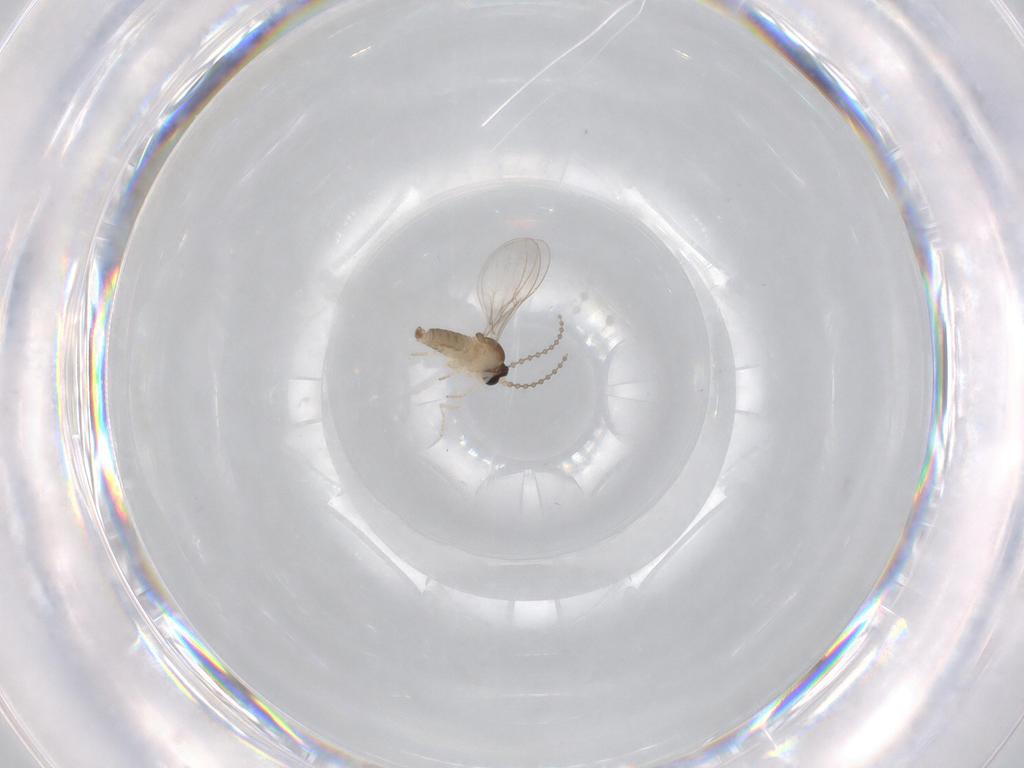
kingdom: Animalia
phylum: Arthropoda
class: Insecta
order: Diptera
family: Cecidomyiidae
